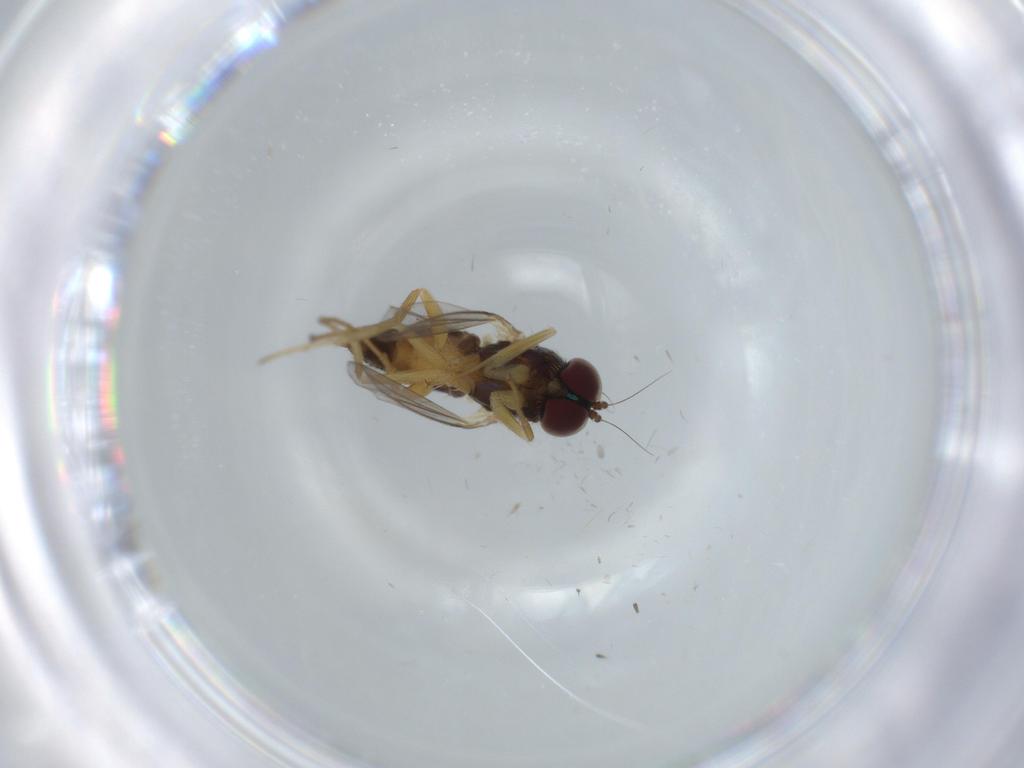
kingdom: Animalia
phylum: Arthropoda
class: Insecta
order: Diptera
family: Dolichopodidae
